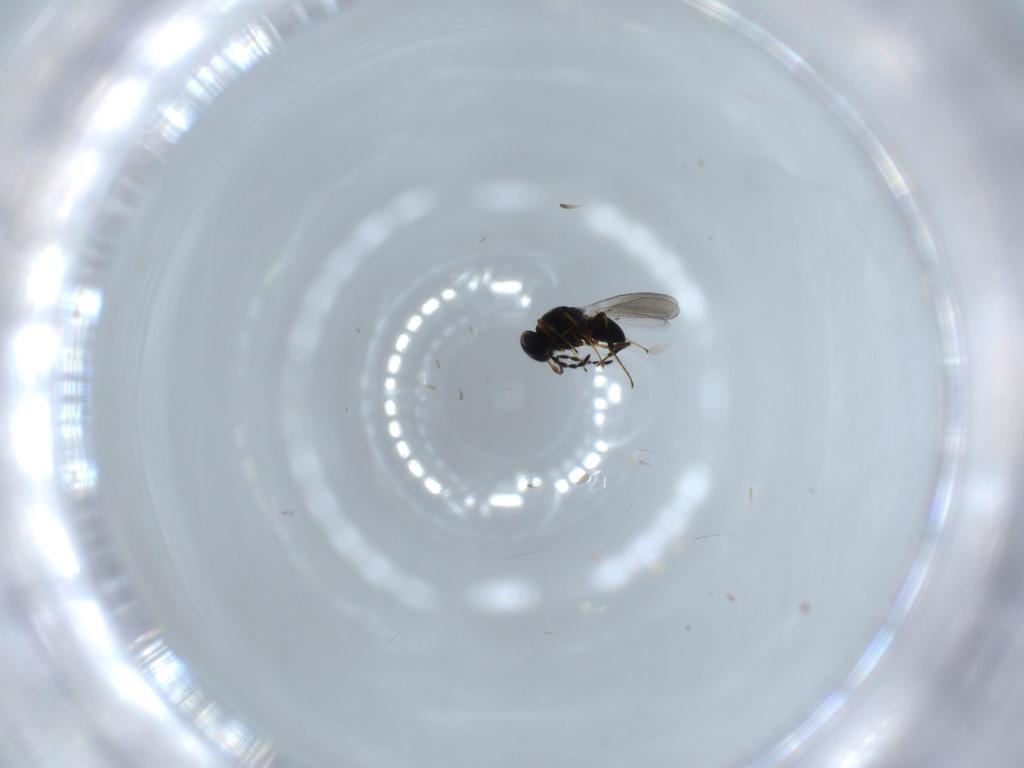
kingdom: Animalia
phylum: Arthropoda
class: Insecta
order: Hymenoptera
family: Platygastridae
